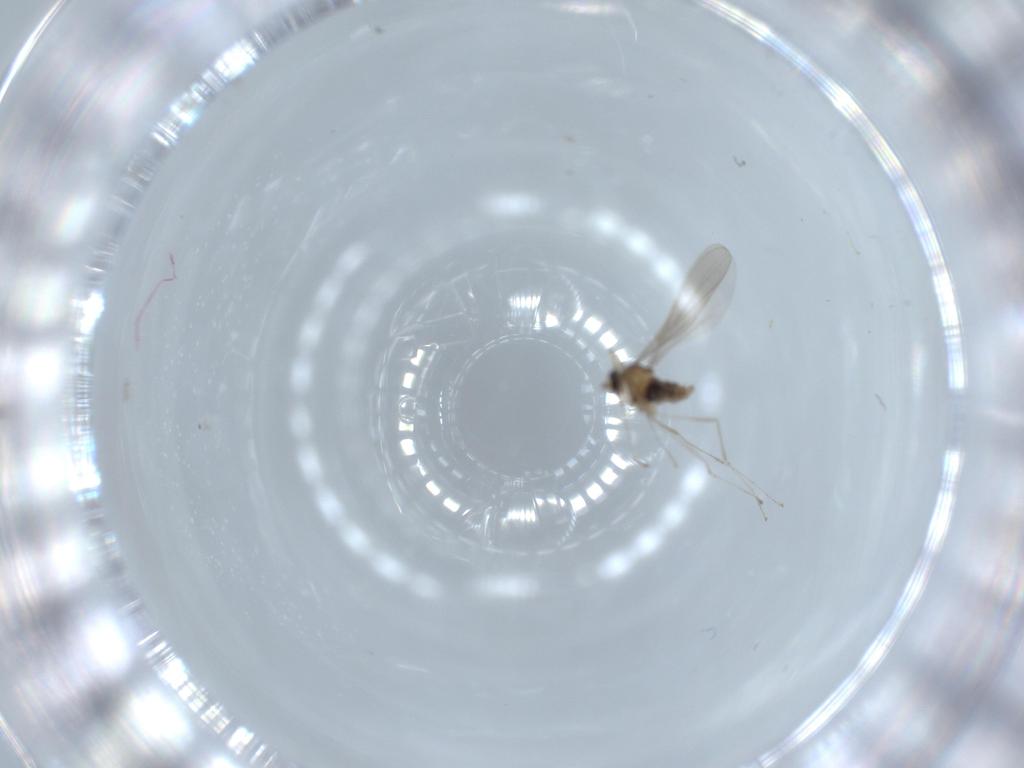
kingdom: Animalia
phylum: Arthropoda
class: Insecta
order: Diptera
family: Cecidomyiidae
